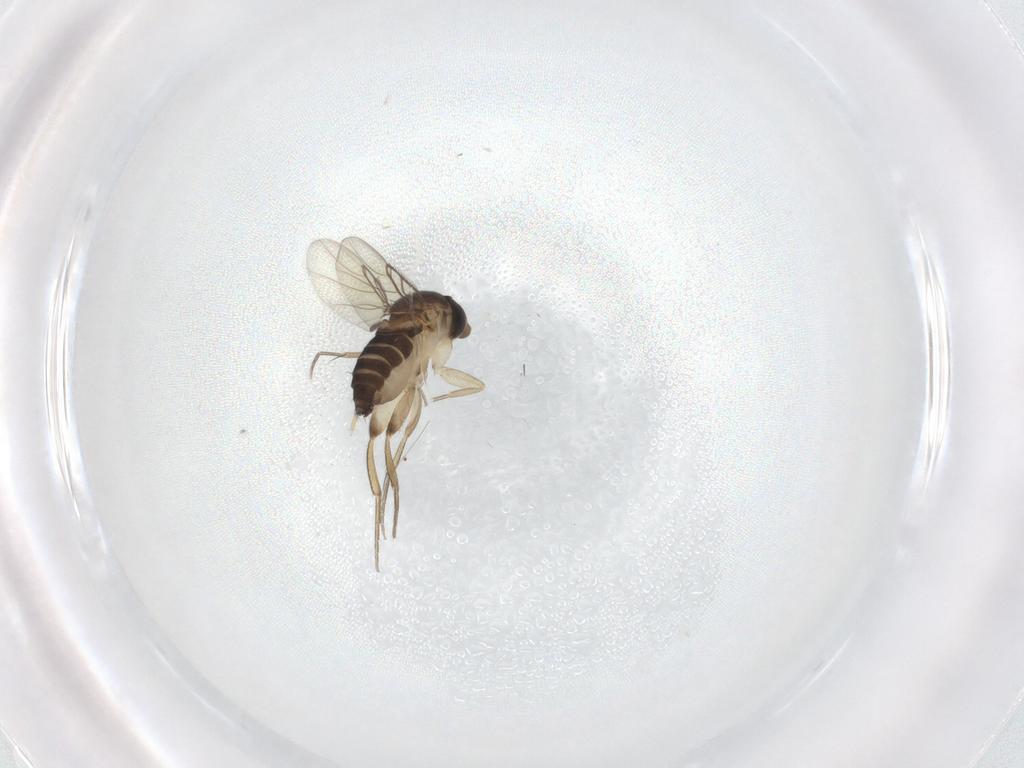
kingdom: Animalia
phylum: Arthropoda
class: Insecta
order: Diptera
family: Phoridae
